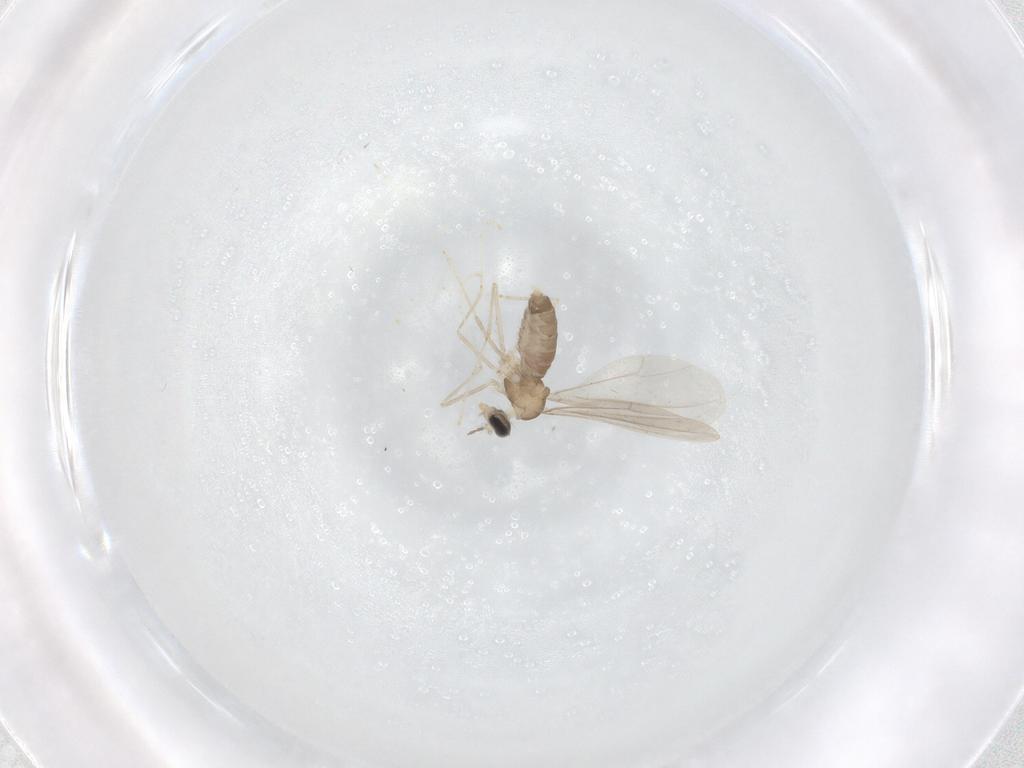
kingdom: Animalia
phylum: Arthropoda
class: Insecta
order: Diptera
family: Cecidomyiidae
